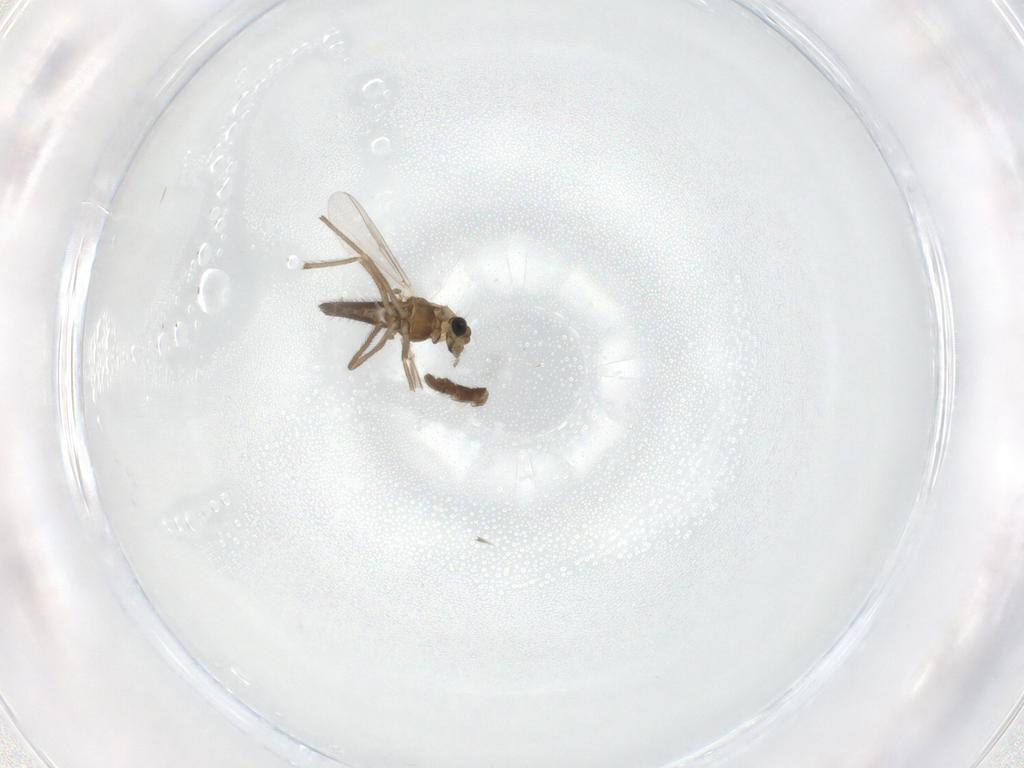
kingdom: Animalia
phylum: Arthropoda
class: Insecta
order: Diptera
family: Chironomidae
